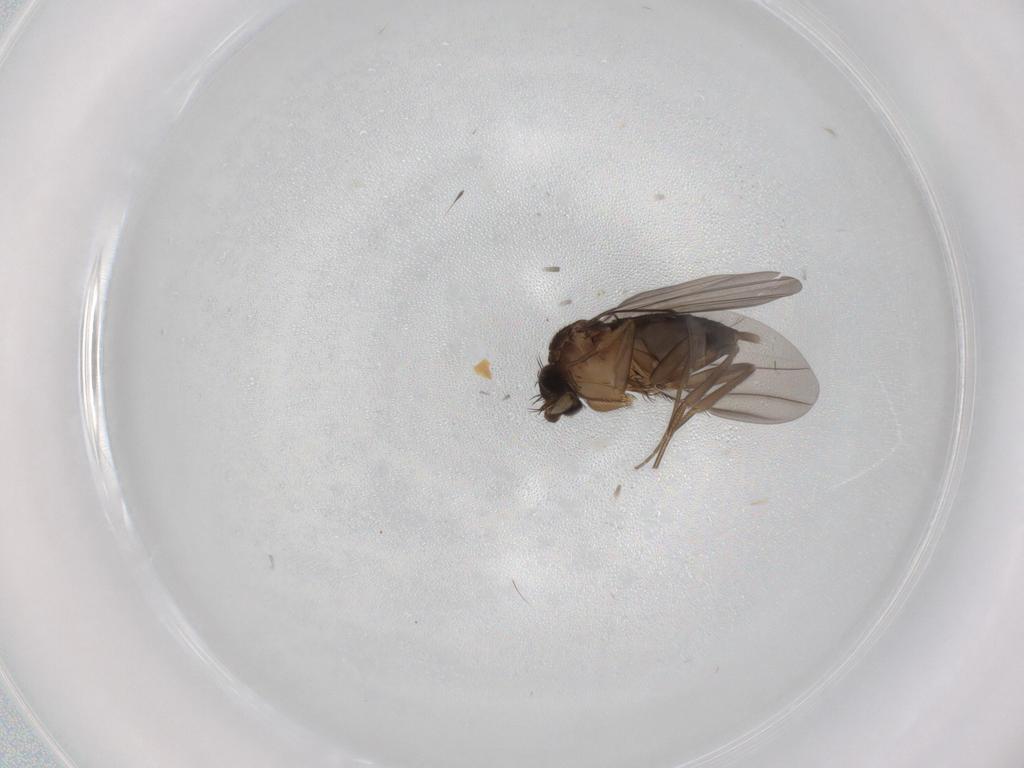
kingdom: Animalia
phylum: Arthropoda
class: Insecta
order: Diptera
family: Phoridae
